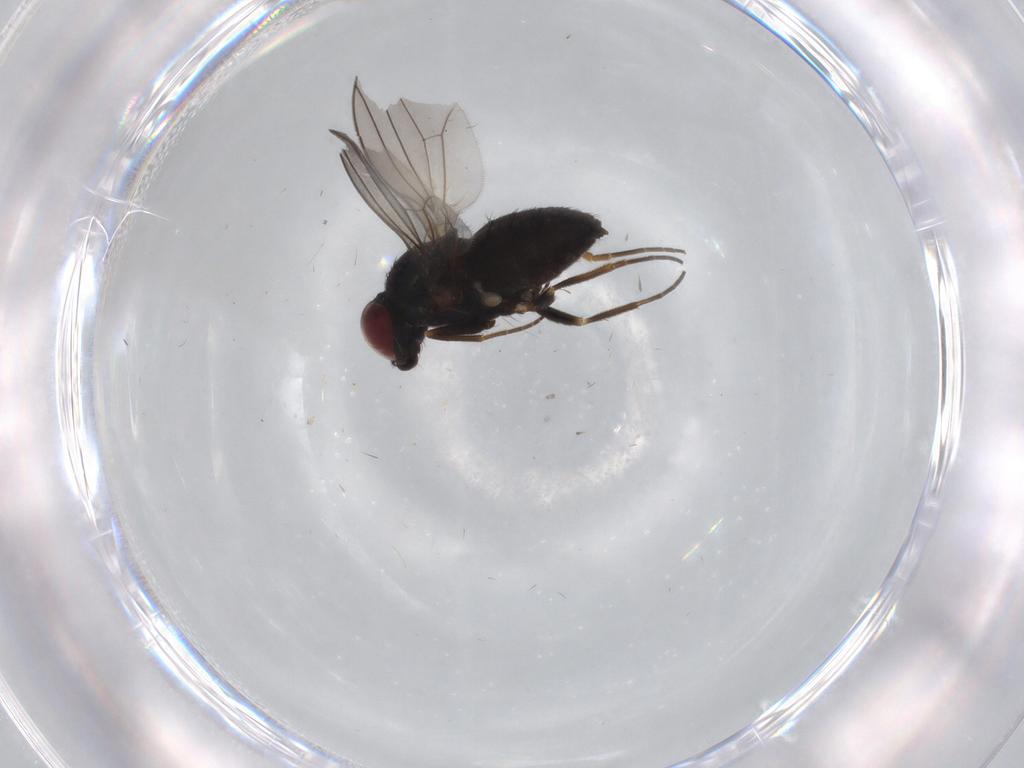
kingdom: Animalia
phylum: Arthropoda
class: Insecta
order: Diptera
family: Dolichopodidae
